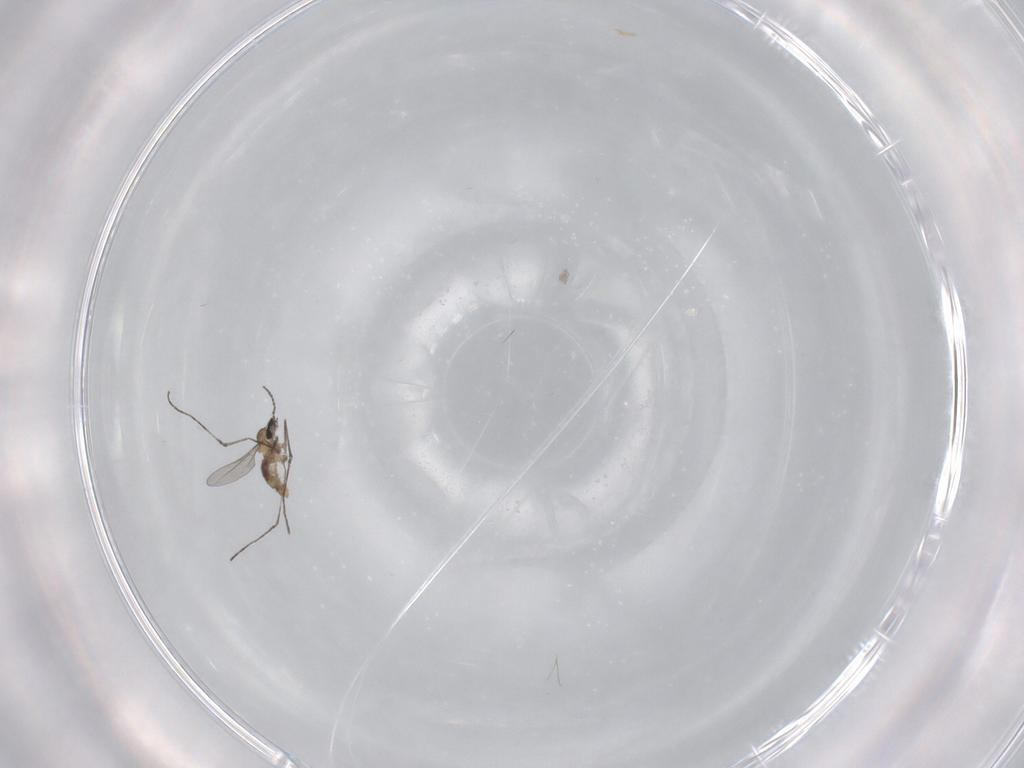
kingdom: Animalia
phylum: Arthropoda
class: Insecta
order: Diptera
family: Cecidomyiidae
